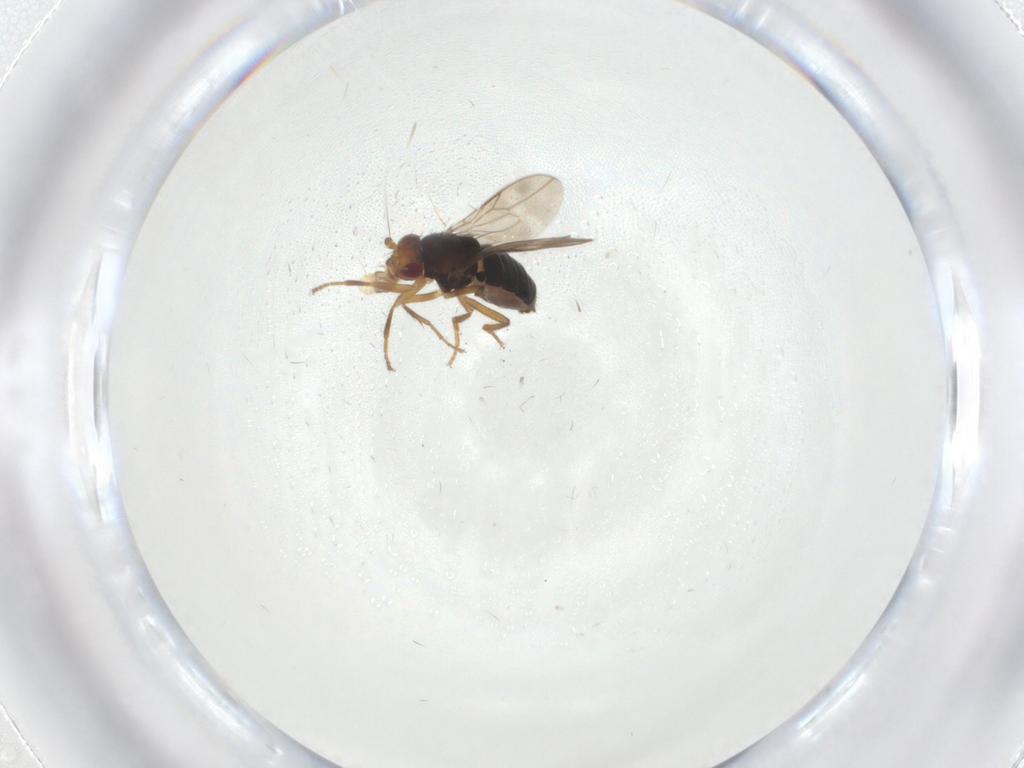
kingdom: Animalia
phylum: Arthropoda
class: Insecta
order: Diptera
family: Sphaeroceridae
